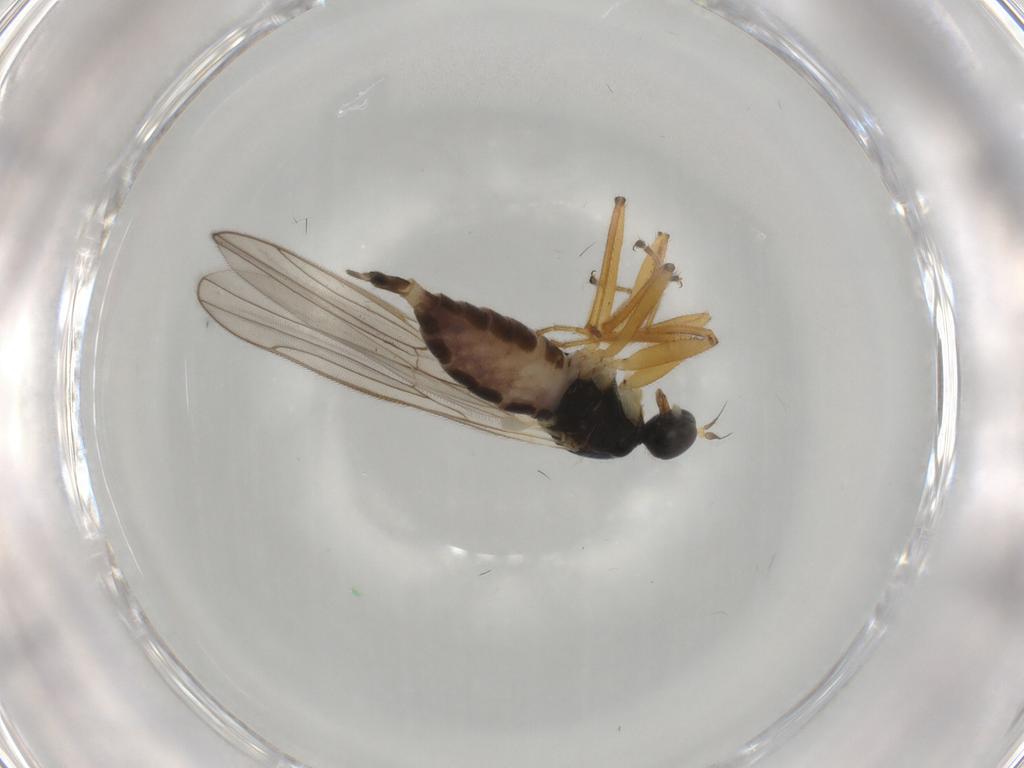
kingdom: Animalia
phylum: Arthropoda
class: Insecta
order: Diptera
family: Hybotidae
